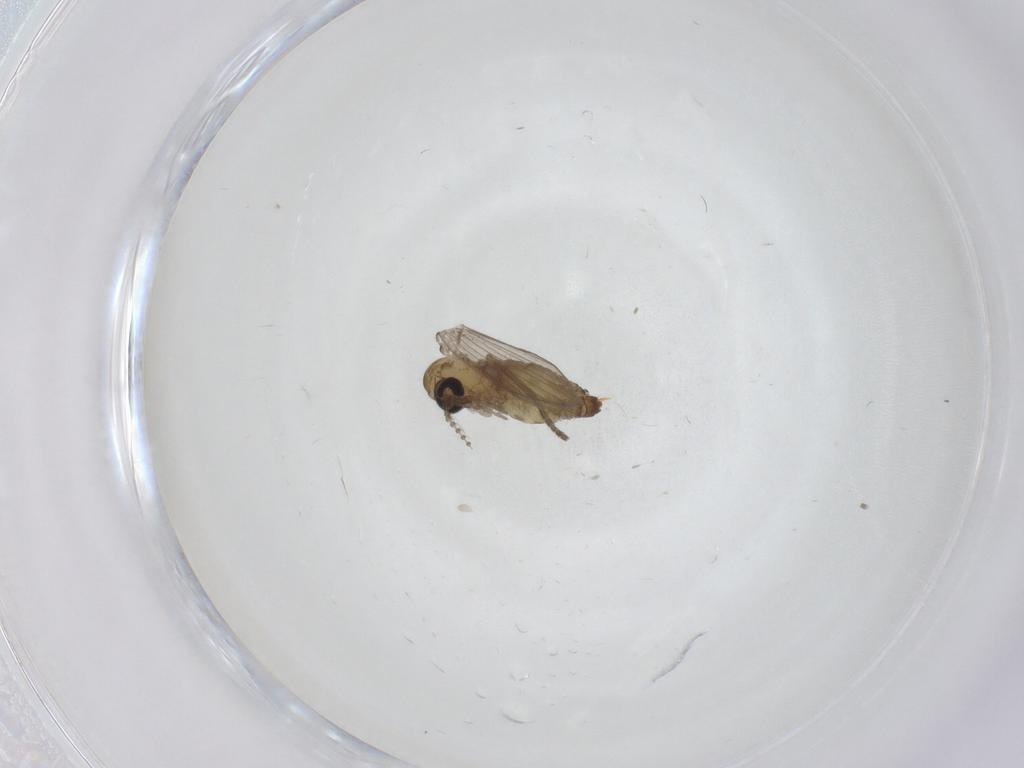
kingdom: Animalia
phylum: Arthropoda
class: Insecta
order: Diptera
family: Psychodidae
